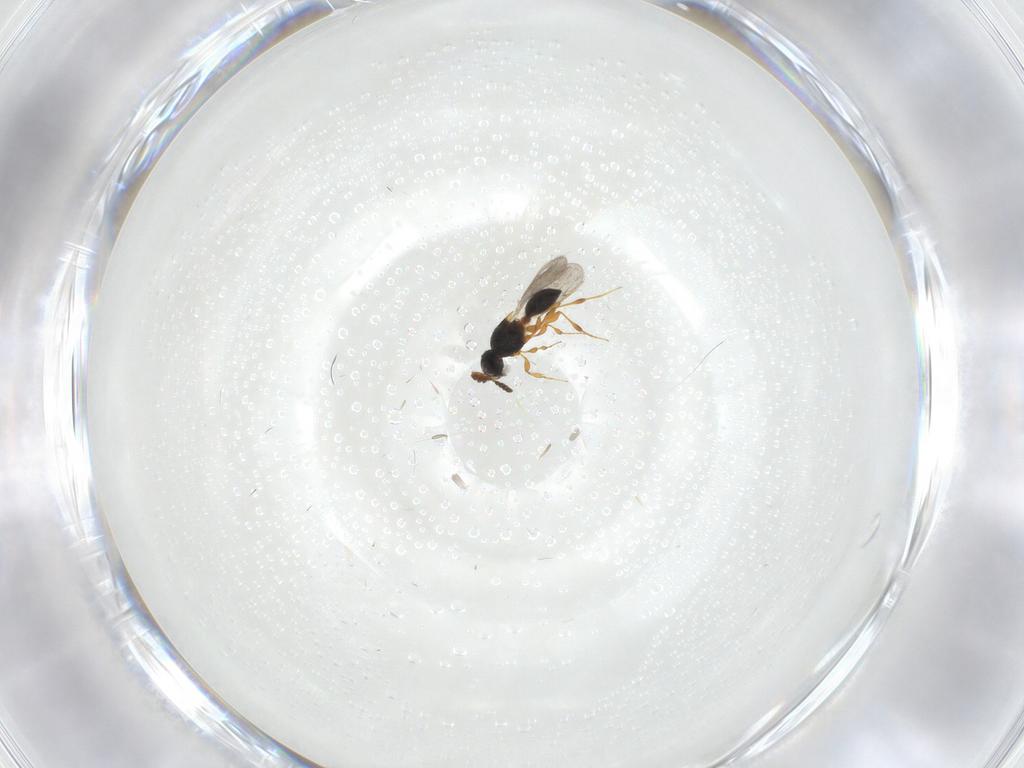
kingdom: Animalia
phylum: Arthropoda
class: Insecta
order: Hymenoptera
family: Platygastridae
